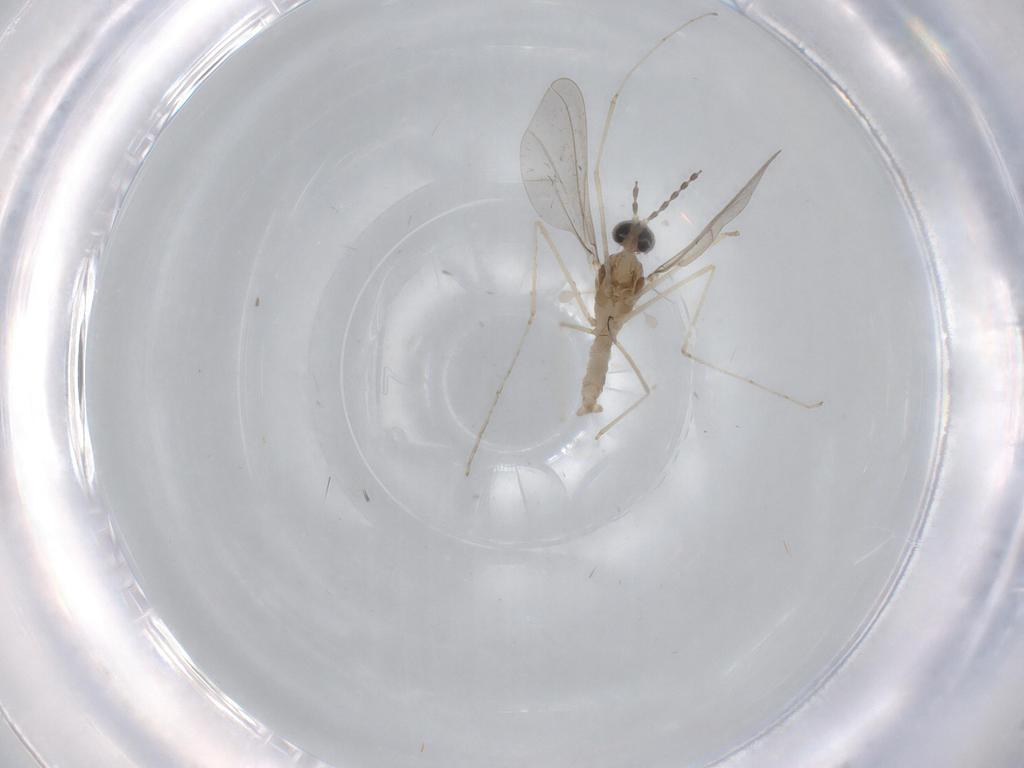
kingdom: Animalia
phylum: Arthropoda
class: Insecta
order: Diptera
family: Cecidomyiidae
